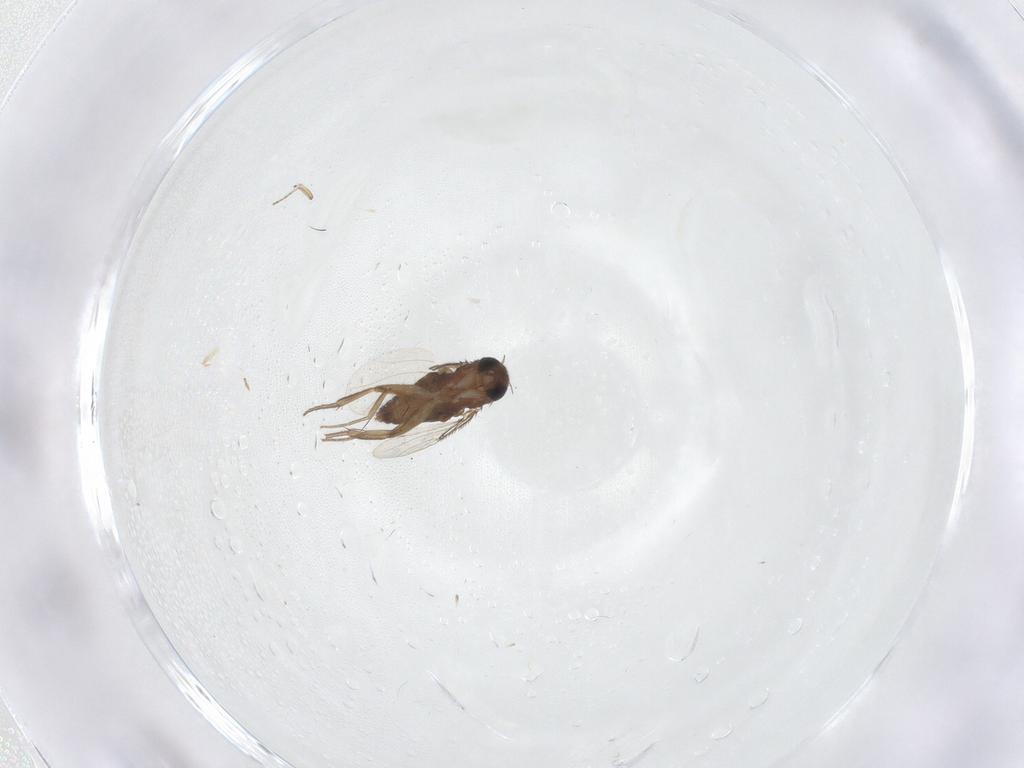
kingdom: Animalia
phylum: Arthropoda
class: Insecta
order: Diptera
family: Phoridae
